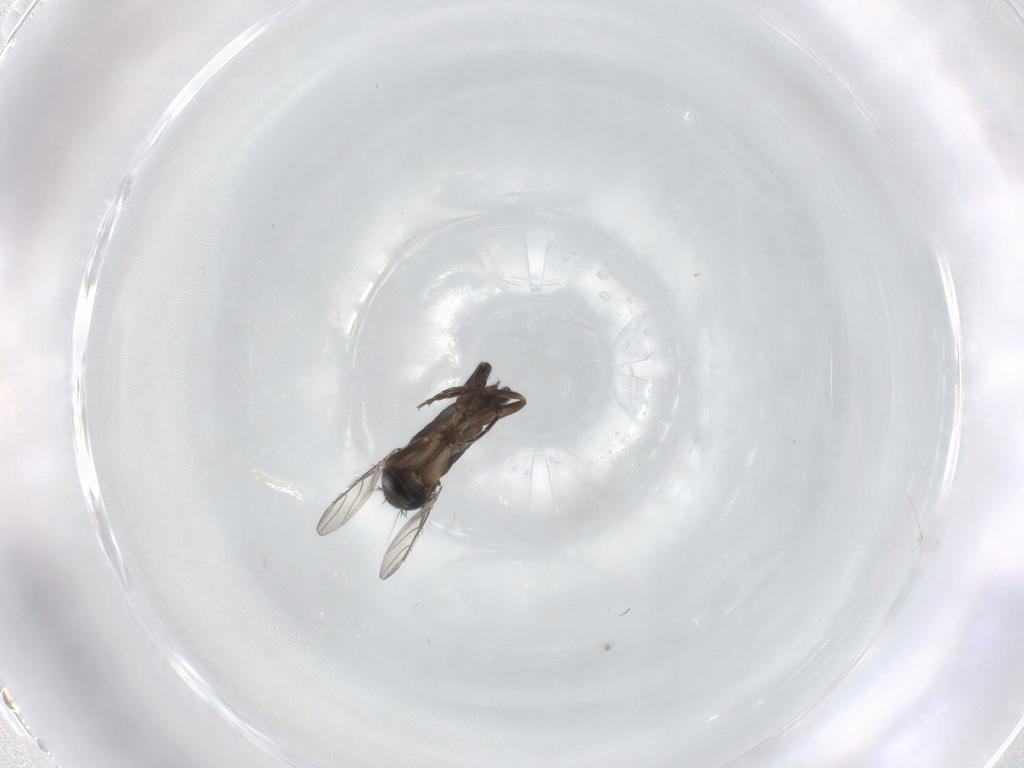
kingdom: Animalia
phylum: Arthropoda
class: Insecta
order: Diptera
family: Phoridae
